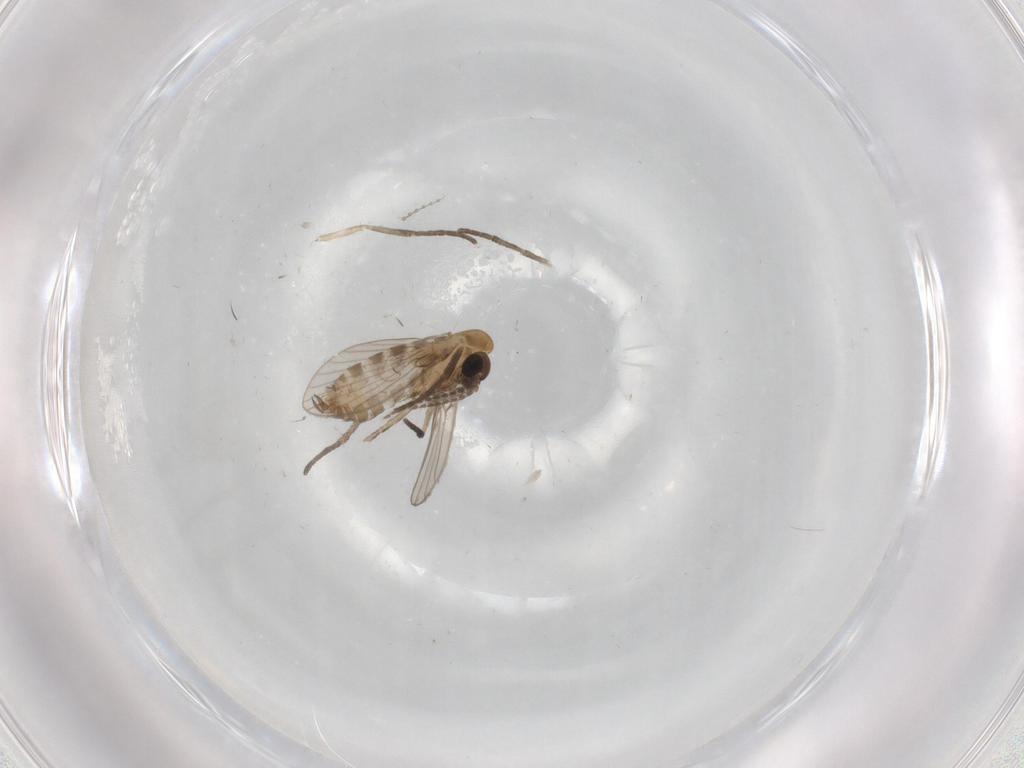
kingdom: Animalia
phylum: Arthropoda
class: Insecta
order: Diptera
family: Psychodidae
